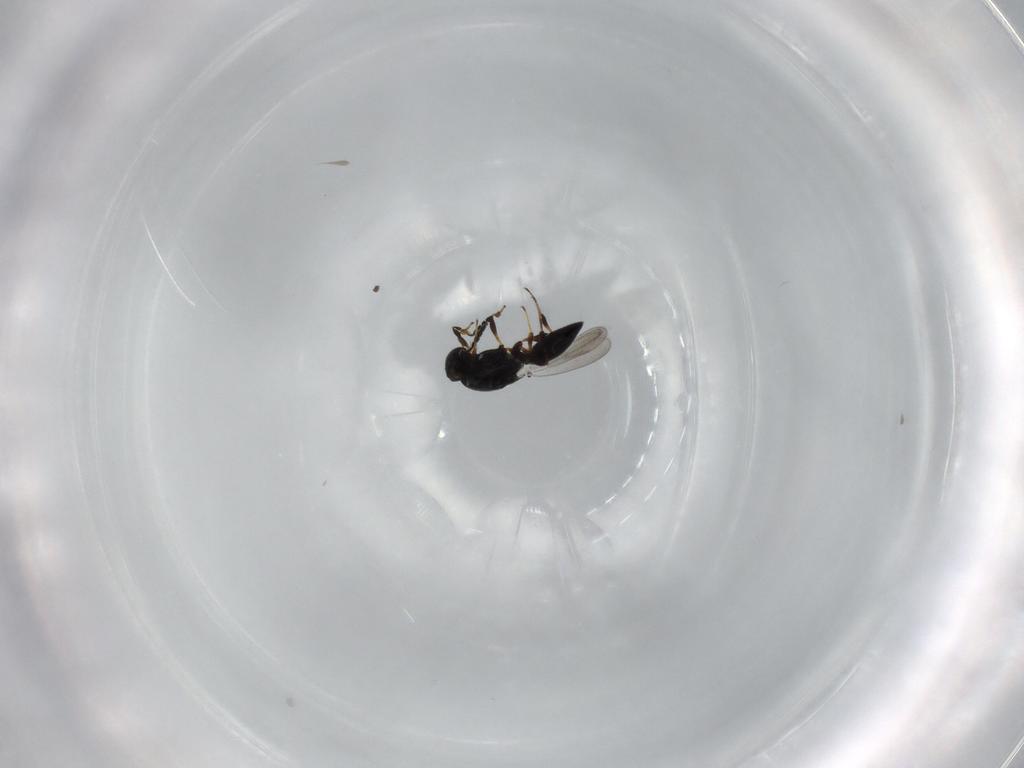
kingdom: Animalia
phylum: Arthropoda
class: Insecta
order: Hymenoptera
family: Platygastridae
